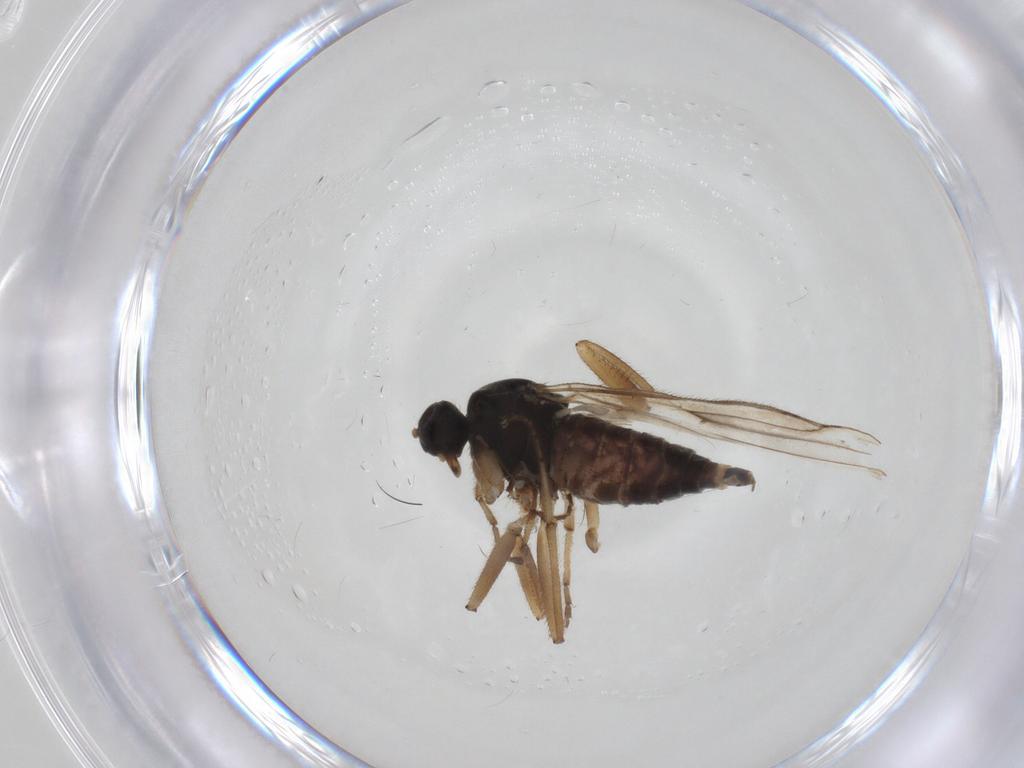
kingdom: Animalia
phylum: Arthropoda
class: Insecta
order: Diptera
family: Hybotidae
